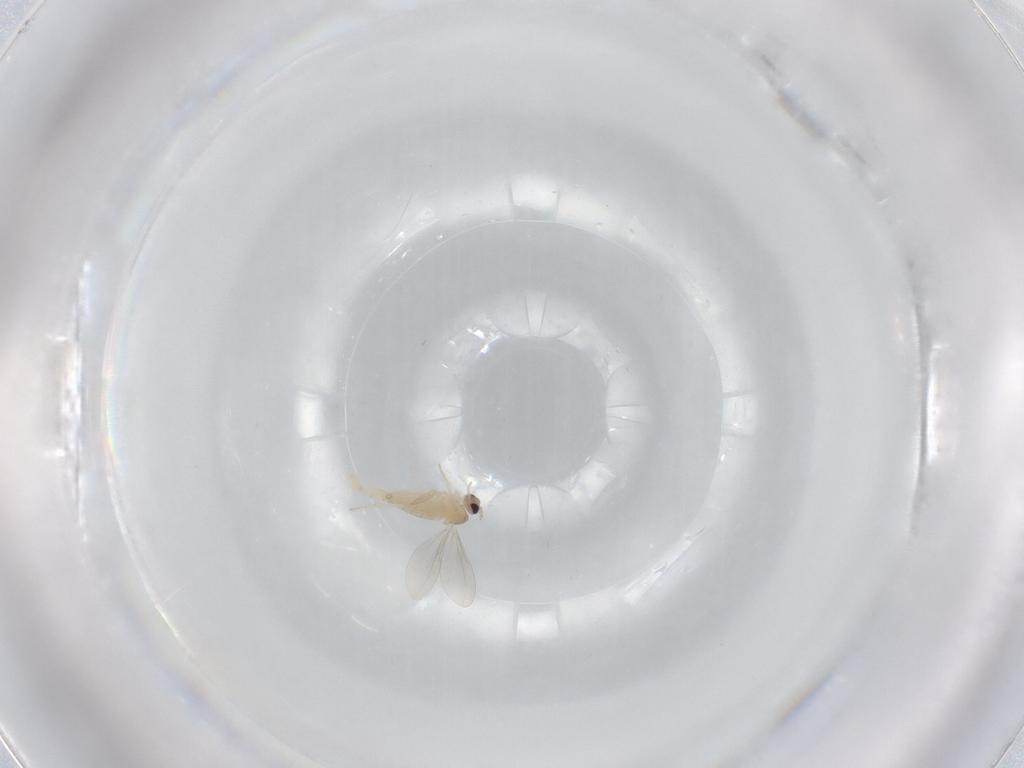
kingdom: Animalia
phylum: Arthropoda
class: Insecta
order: Diptera
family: Cecidomyiidae
